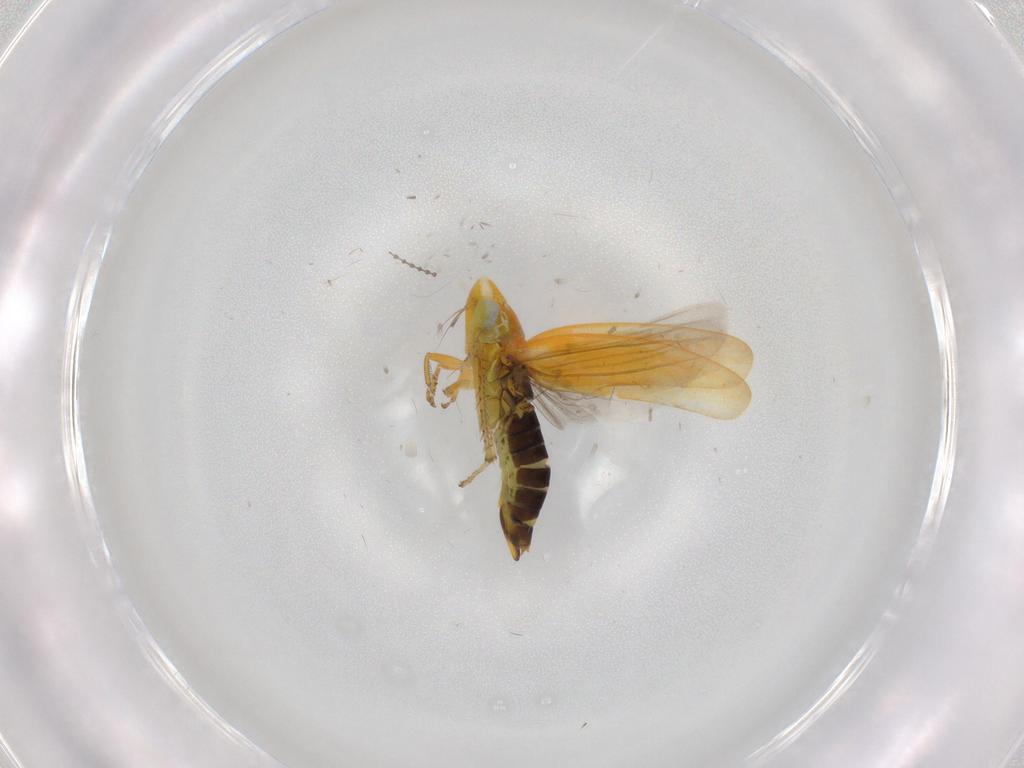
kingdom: Animalia
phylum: Arthropoda
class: Insecta
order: Hemiptera
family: Cicadellidae
